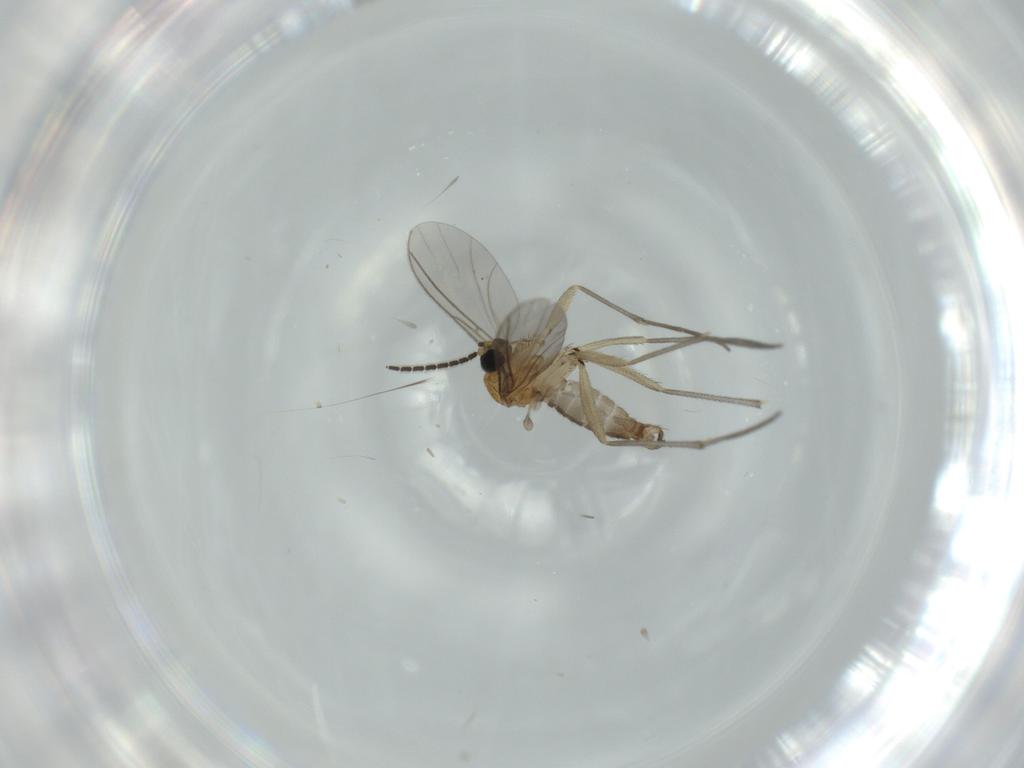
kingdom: Animalia
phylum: Arthropoda
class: Insecta
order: Diptera
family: Sciaridae
